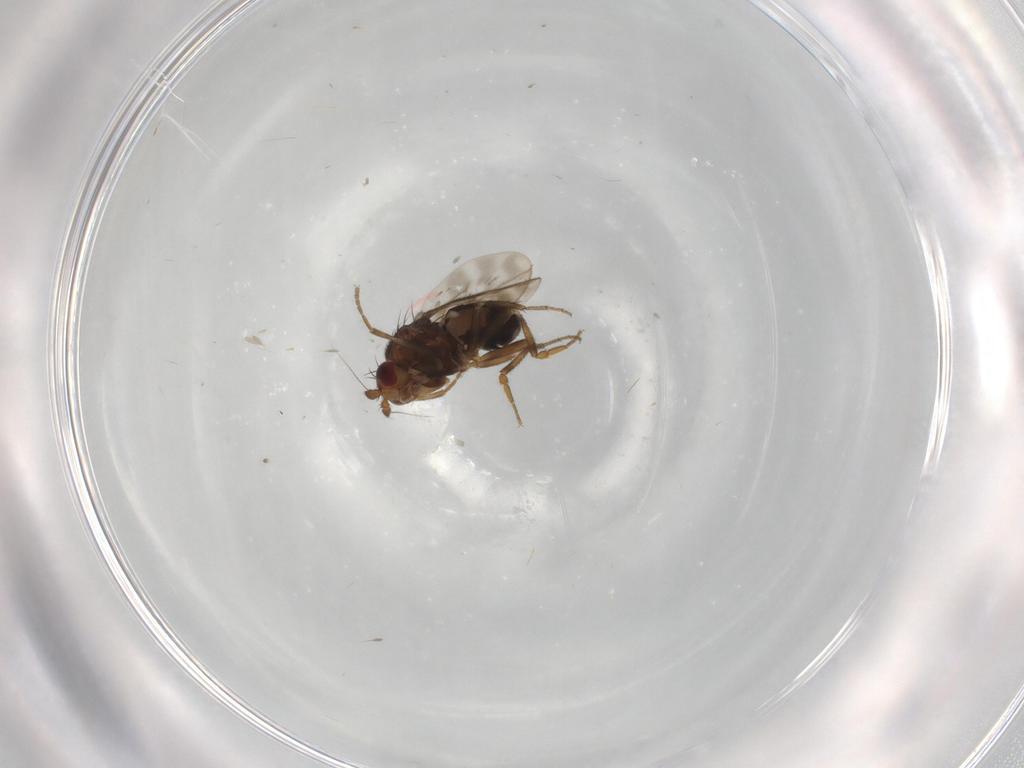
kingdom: Animalia
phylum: Arthropoda
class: Insecta
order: Diptera
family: Sphaeroceridae
